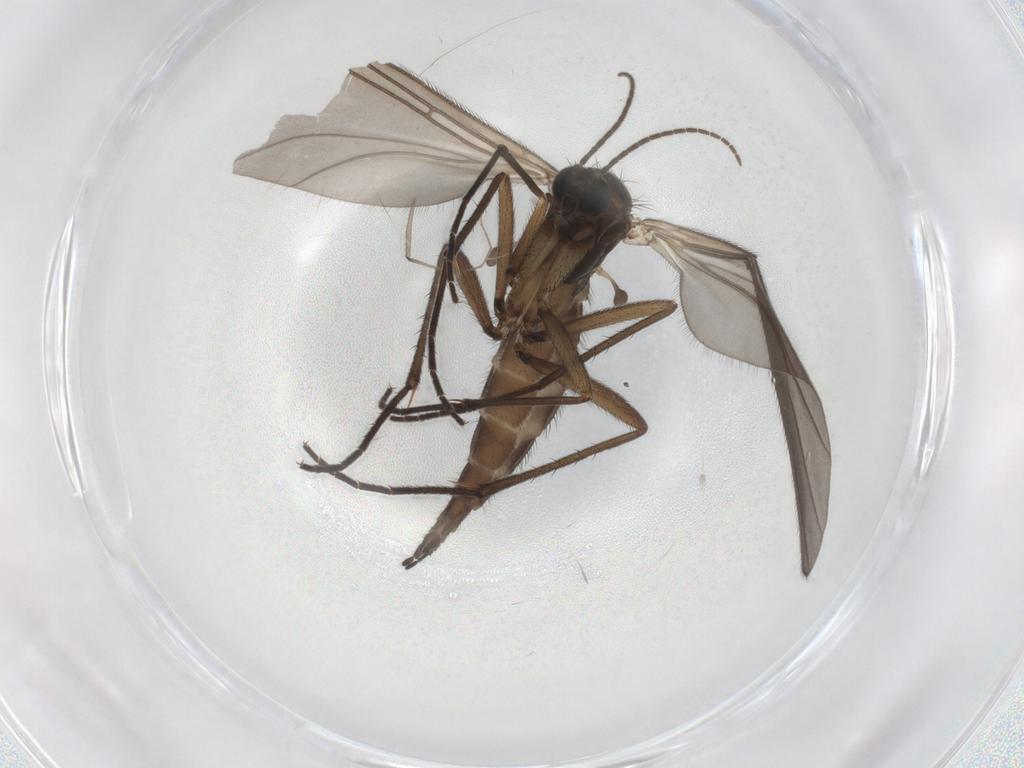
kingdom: Animalia
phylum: Arthropoda
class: Insecta
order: Diptera
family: Sciaridae
